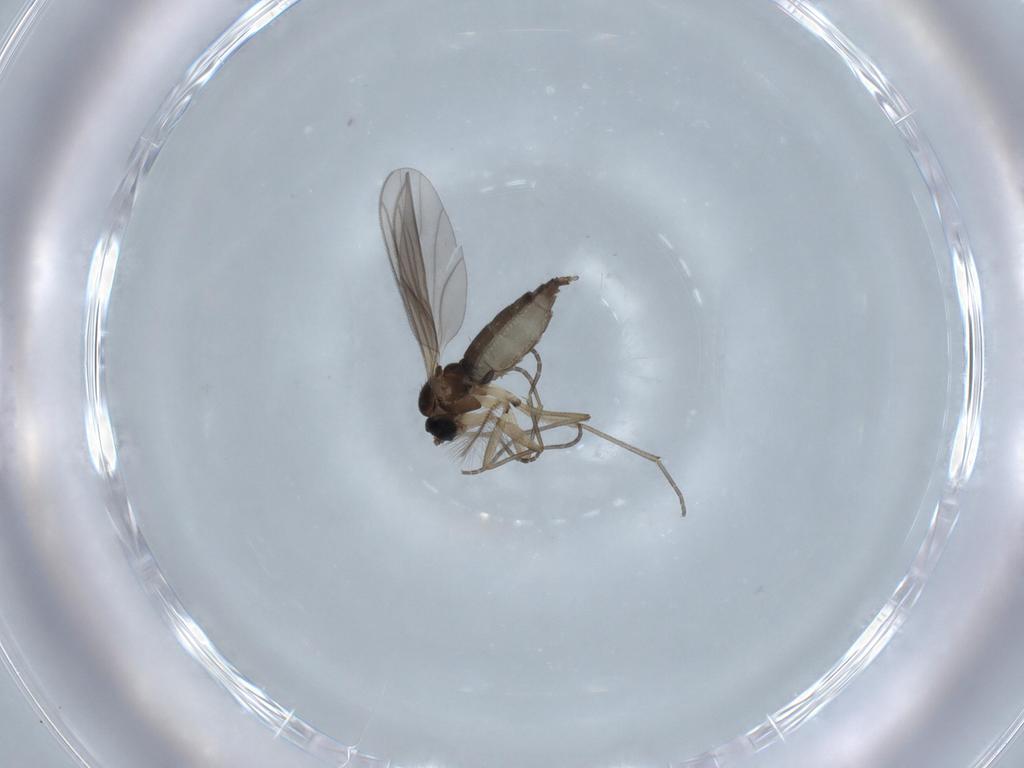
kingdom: Animalia
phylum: Arthropoda
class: Insecta
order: Diptera
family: Sciaridae
